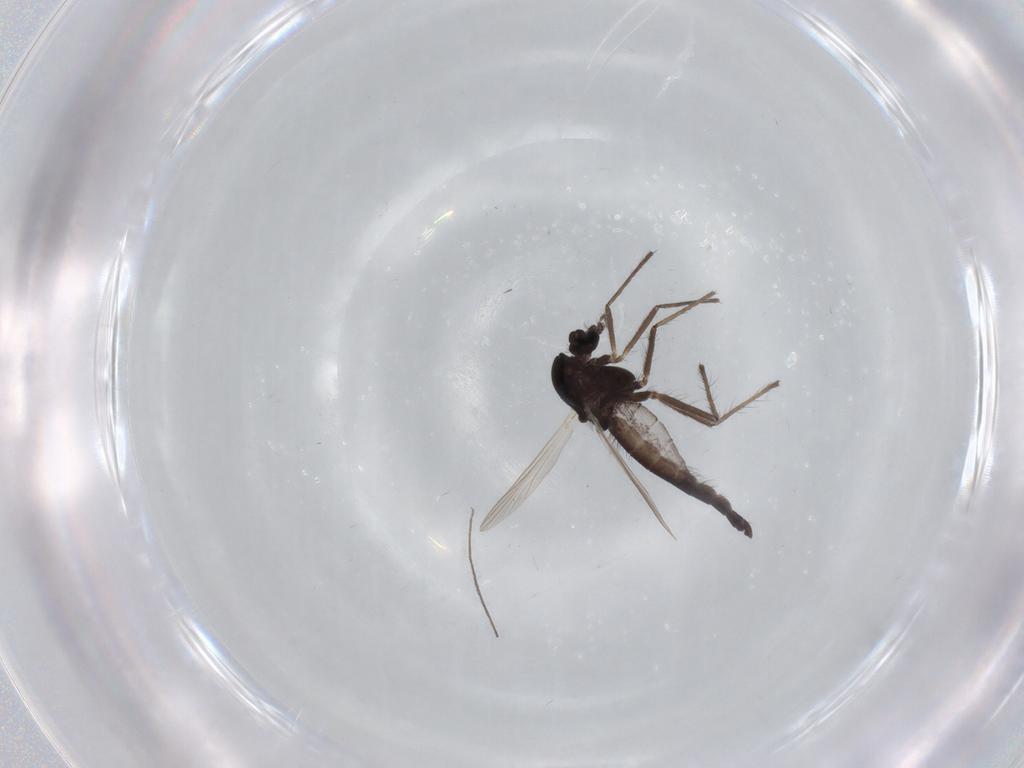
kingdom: Animalia
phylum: Arthropoda
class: Insecta
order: Diptera
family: Chironomidae
